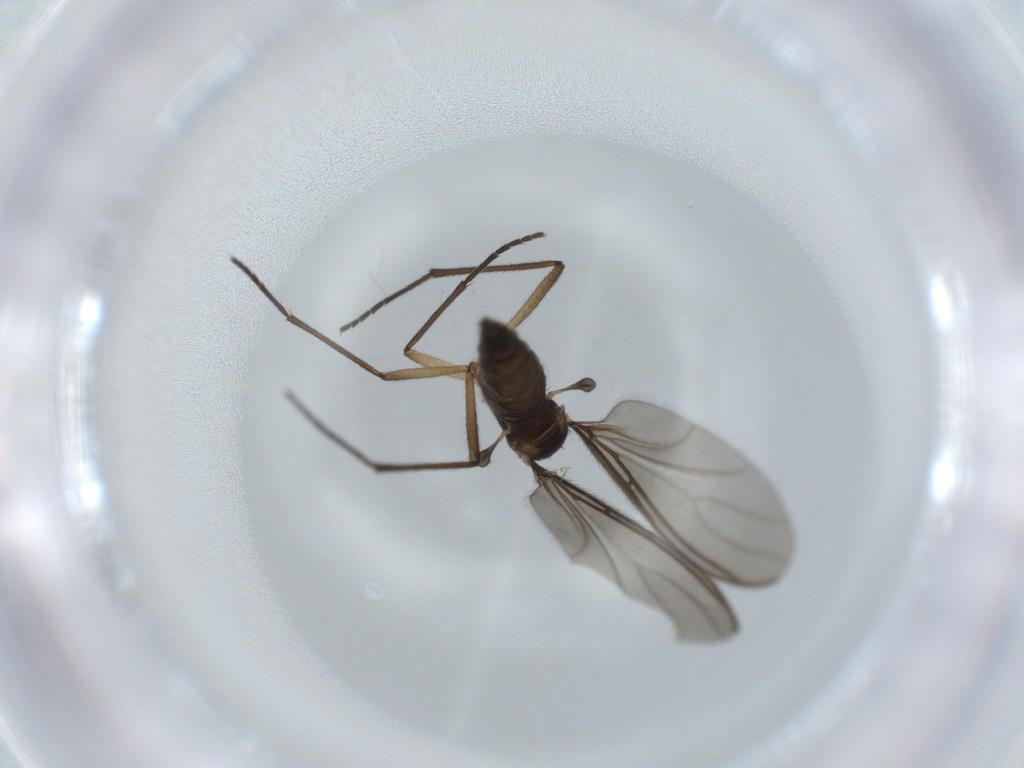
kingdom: Animalia
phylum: Arthropoda
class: Insecta
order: Diptera
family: Sciaridae
